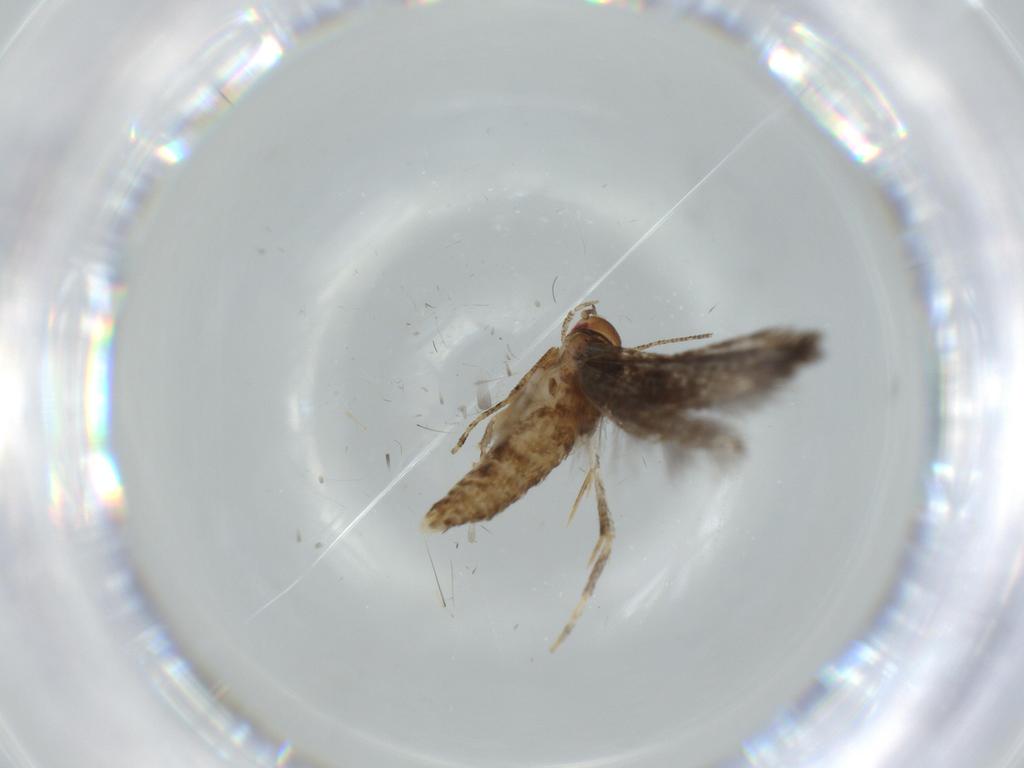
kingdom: Animalia
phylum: Arthropoda
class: Insecta
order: Lepidoptera
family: Momphidae
